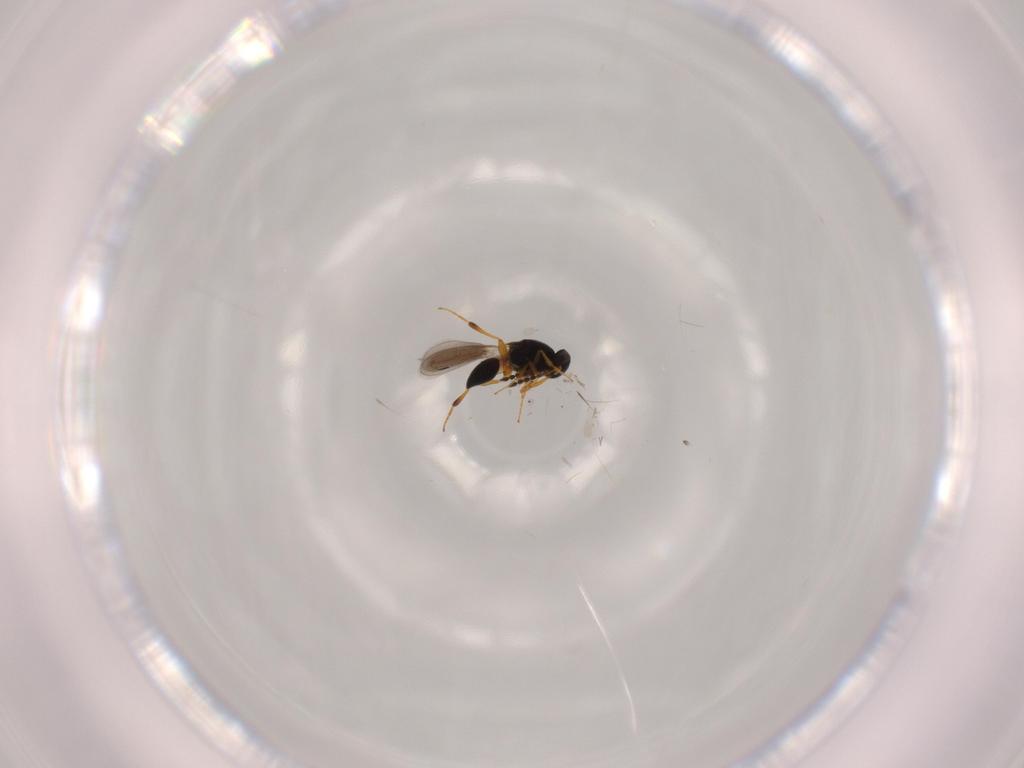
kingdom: Animalia
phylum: Arthropoda
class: Insecta
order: Hymenoptera
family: Platygastridae
